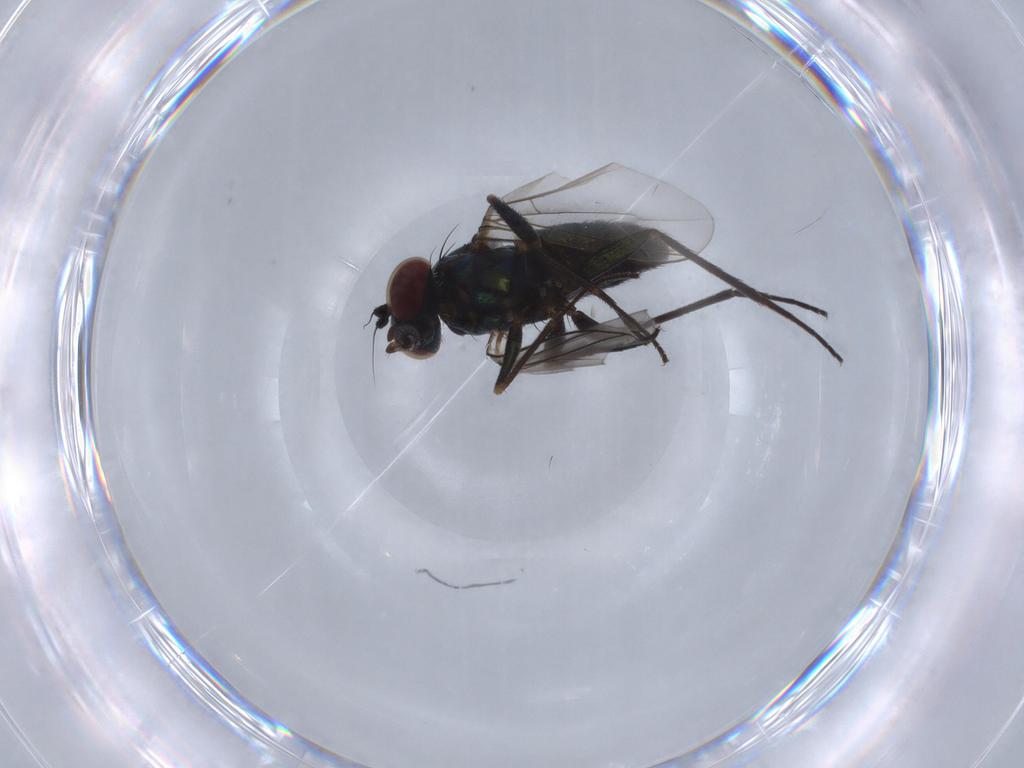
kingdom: Animalia
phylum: Arthropoda
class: Insecta
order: Diptera
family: Dolichopodidae
